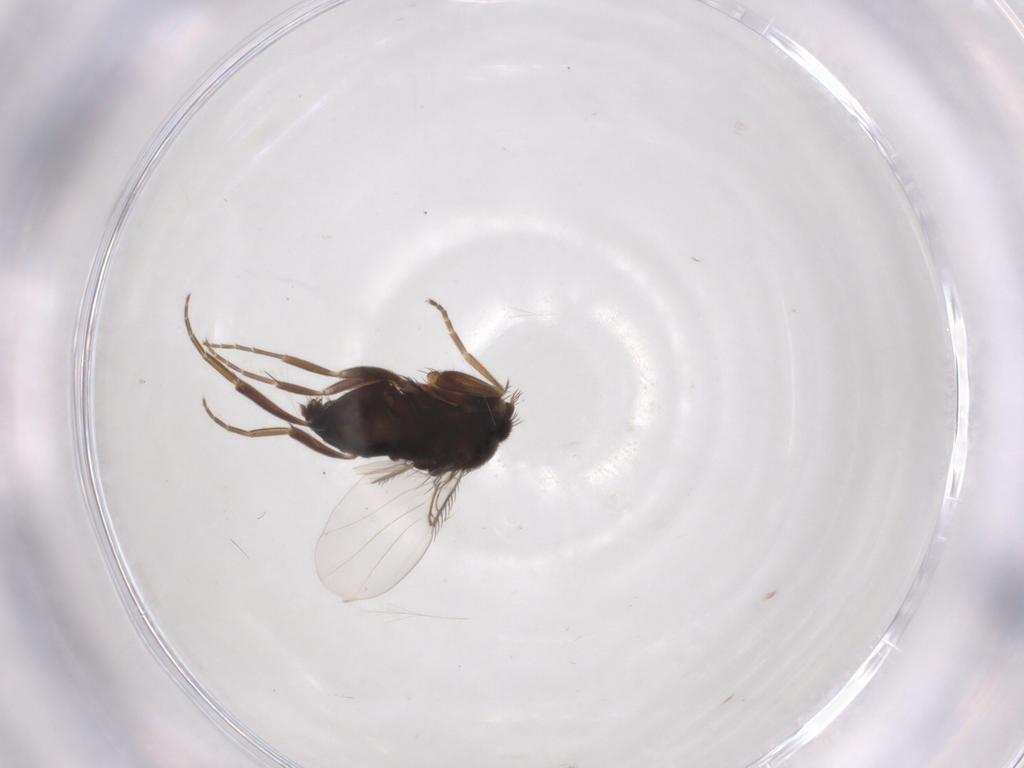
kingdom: Animalia
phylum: Arthropoda
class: Insecta
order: Diptera
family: Phoridae
